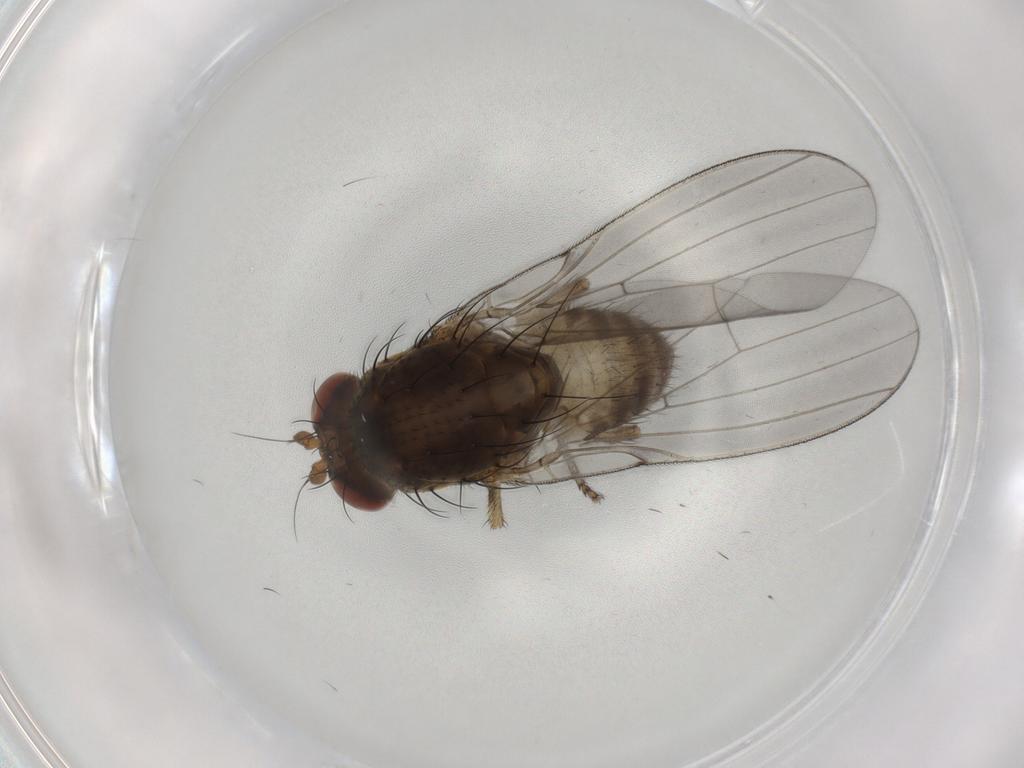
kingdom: Animalia
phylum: Arthropoda
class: Insecta
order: Diptera
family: Lauxaniidae
